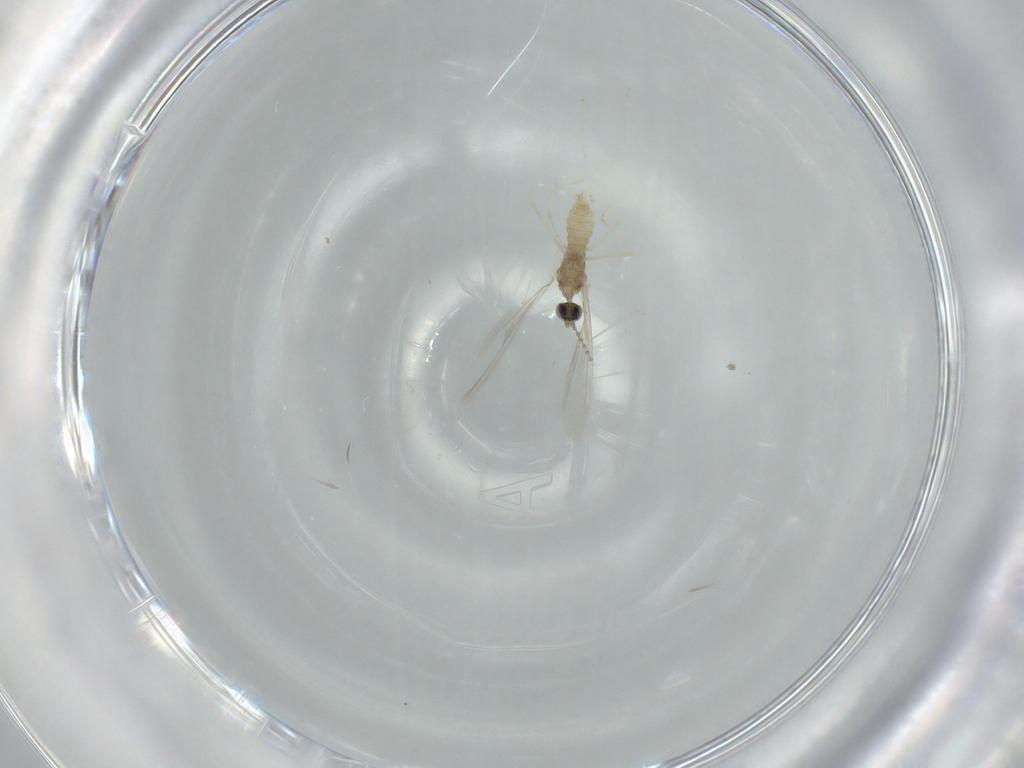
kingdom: Animalia
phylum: Arthropoda
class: Insecta
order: Diptera
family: Cecidomyiidae
